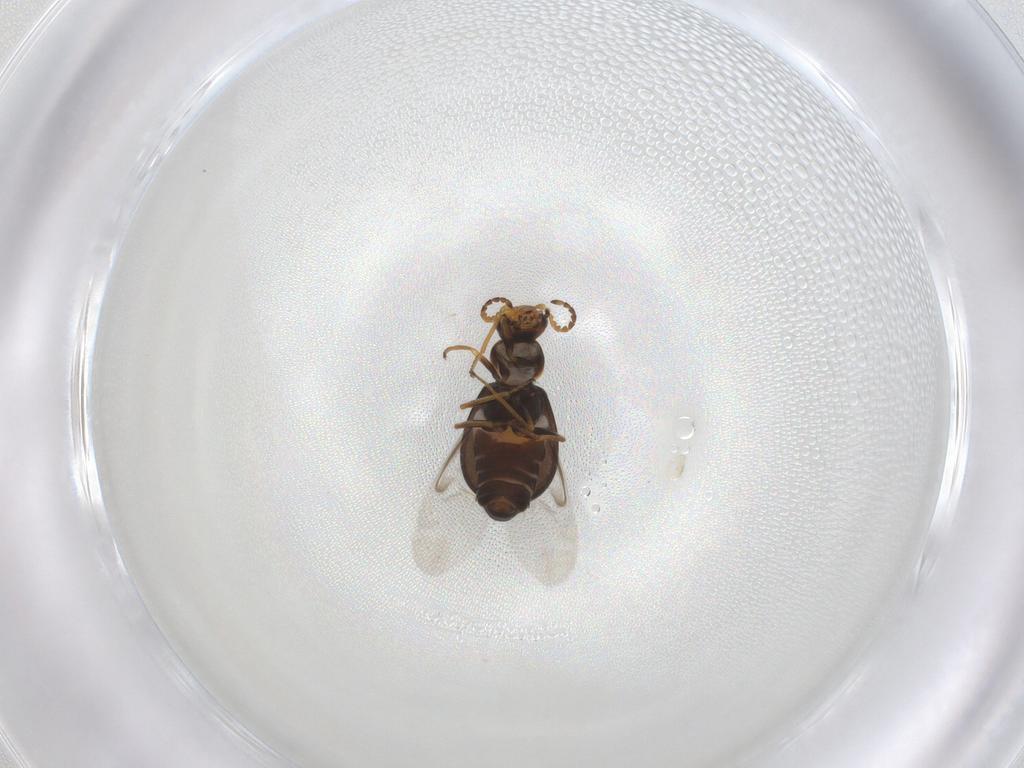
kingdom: Animalia
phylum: Arthropoda
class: Insecta
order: Coleoptera
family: Melyridae
